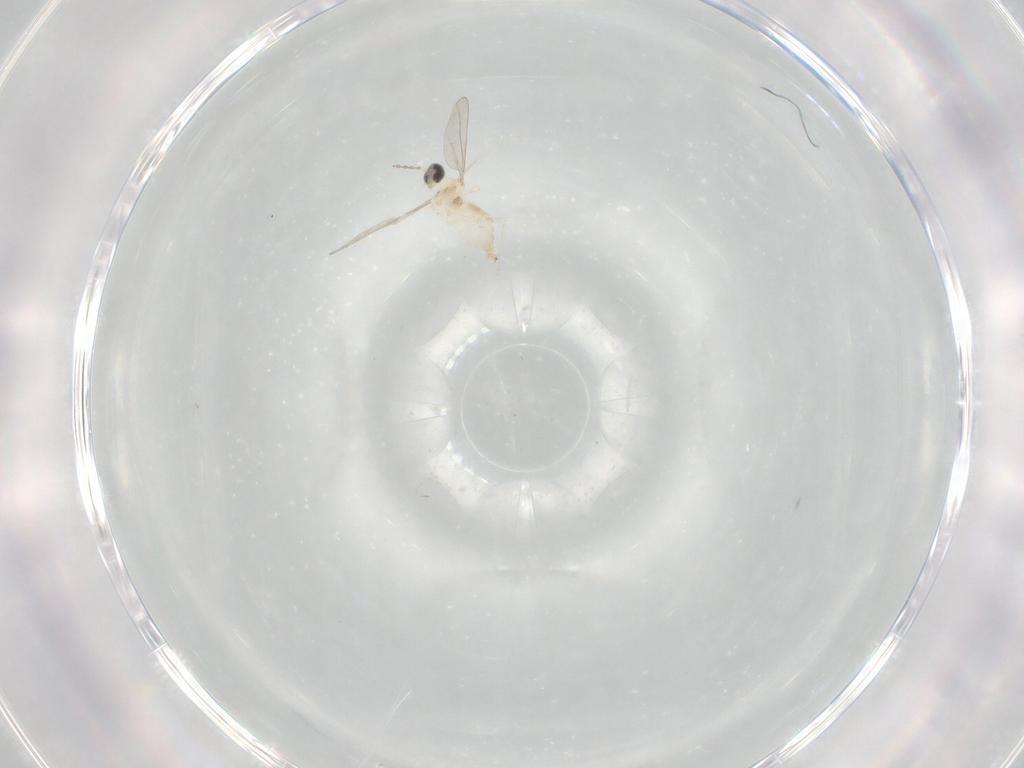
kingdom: Animalia
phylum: Arthropoda
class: Insecta
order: Diptera
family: Cecidomyiidae
